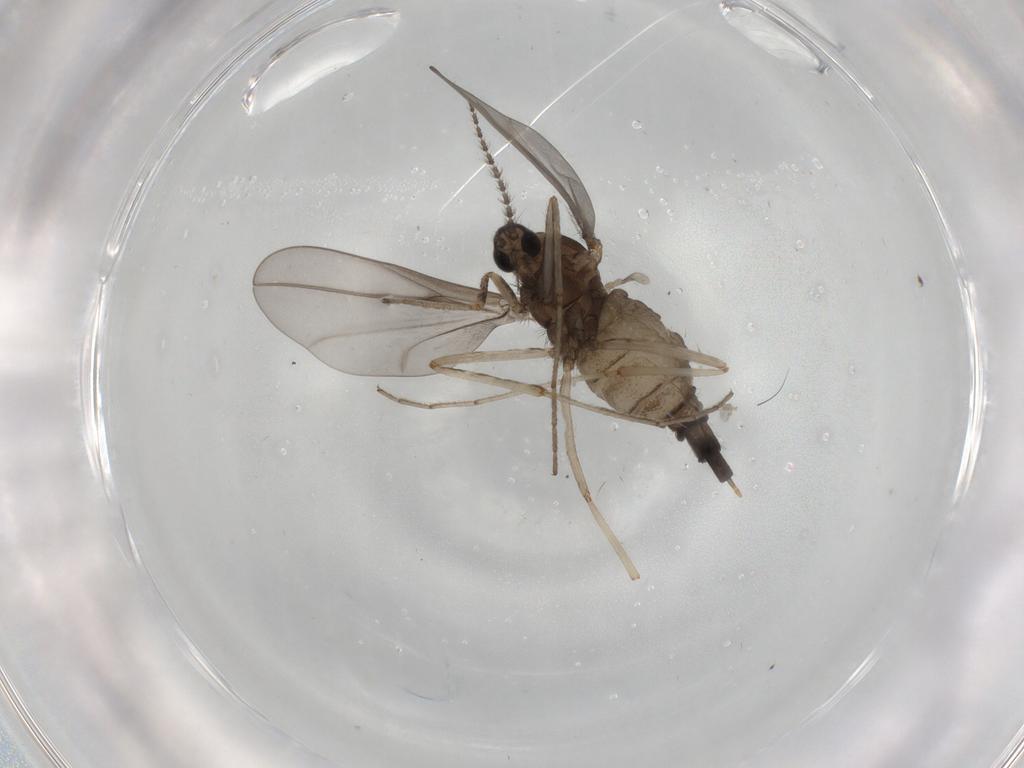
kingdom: Animalia
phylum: Arthropoda
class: Insecta
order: Diptera
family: Cecidomyiidae
